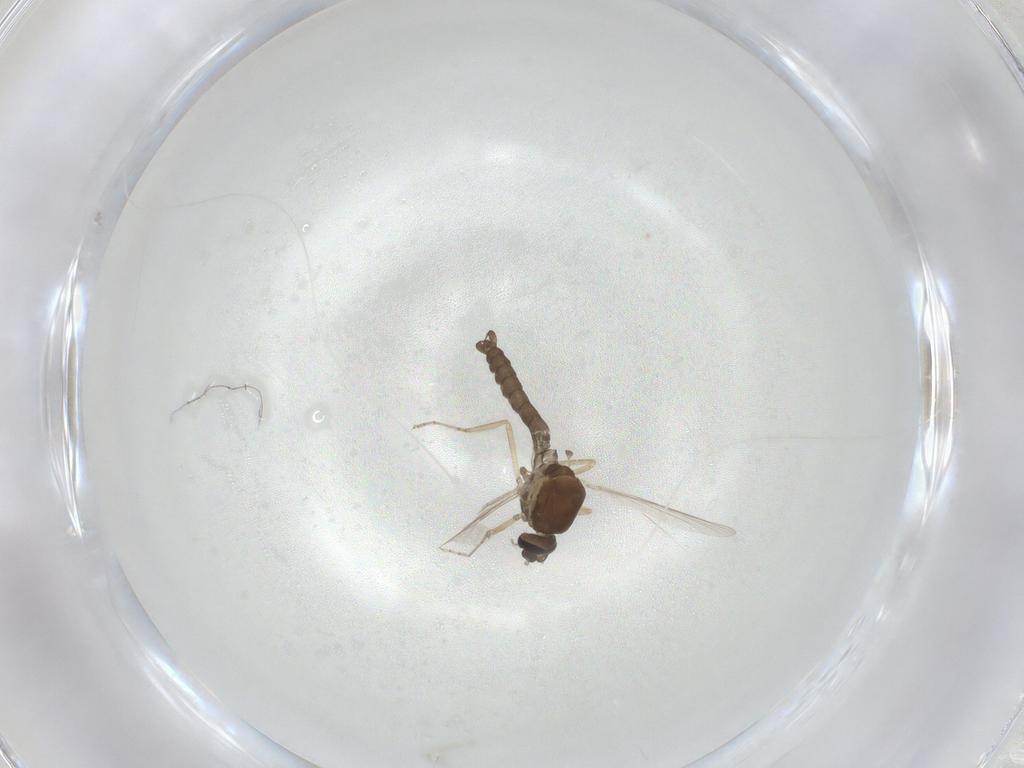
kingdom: Animalia
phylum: Arthropoda
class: Insecta
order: Diptera
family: Ceratopogonidae
